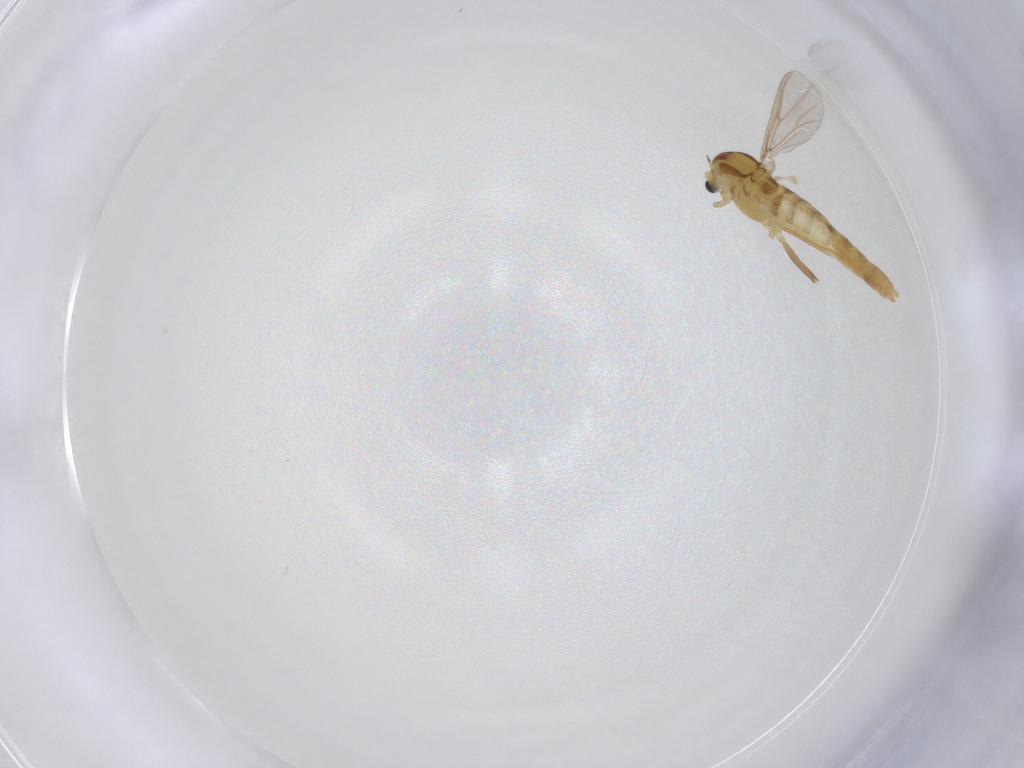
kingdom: Animalia
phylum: Arthropoda
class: Insecta
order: Diptera
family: Chironomidae
